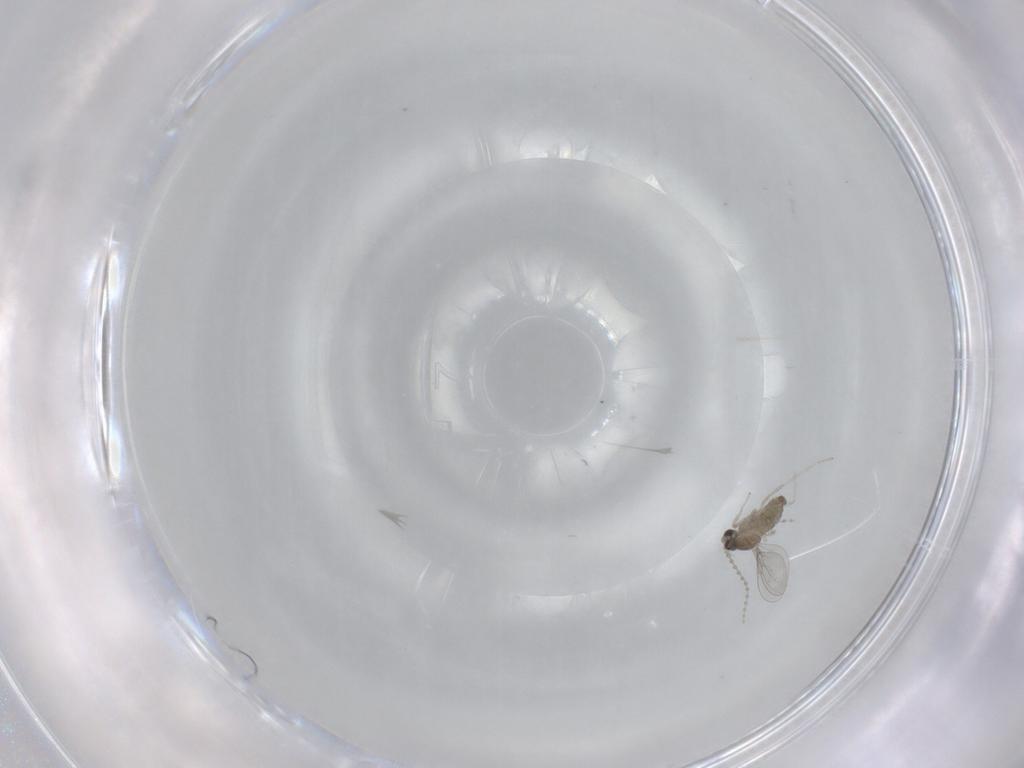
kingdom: Animalia
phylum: Arthropoda
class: Insecta
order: Diptera
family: Cecidomyiidae
